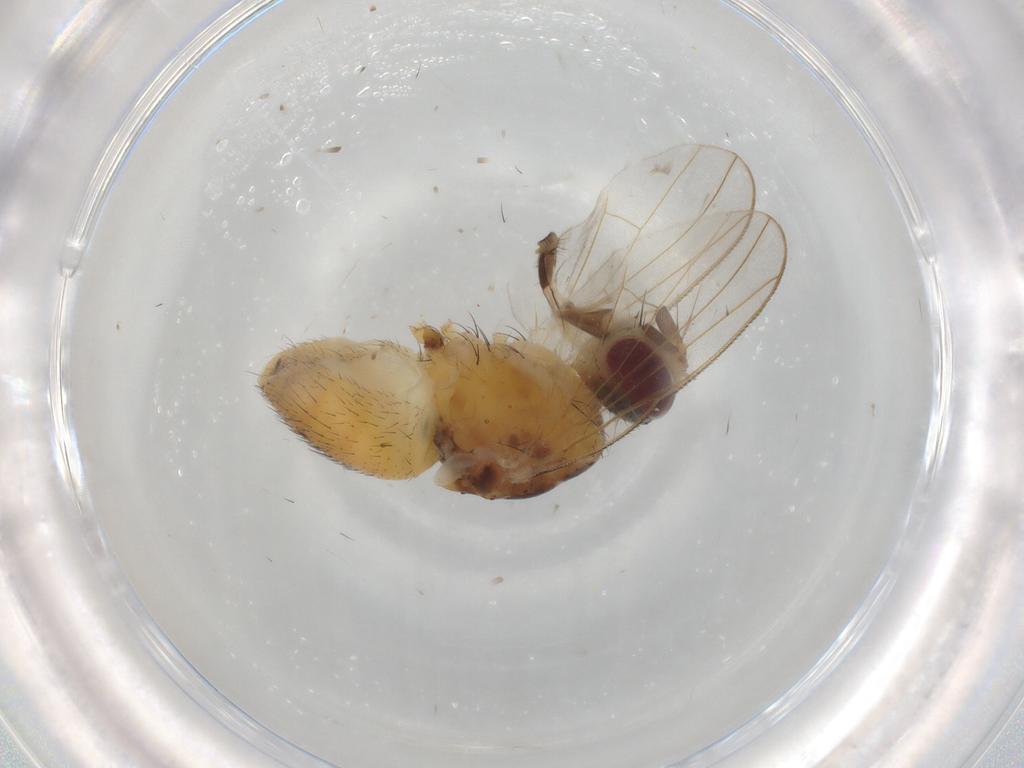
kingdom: Animalia
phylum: Arthropoda
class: Insecta
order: Diptera
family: Muscidae
